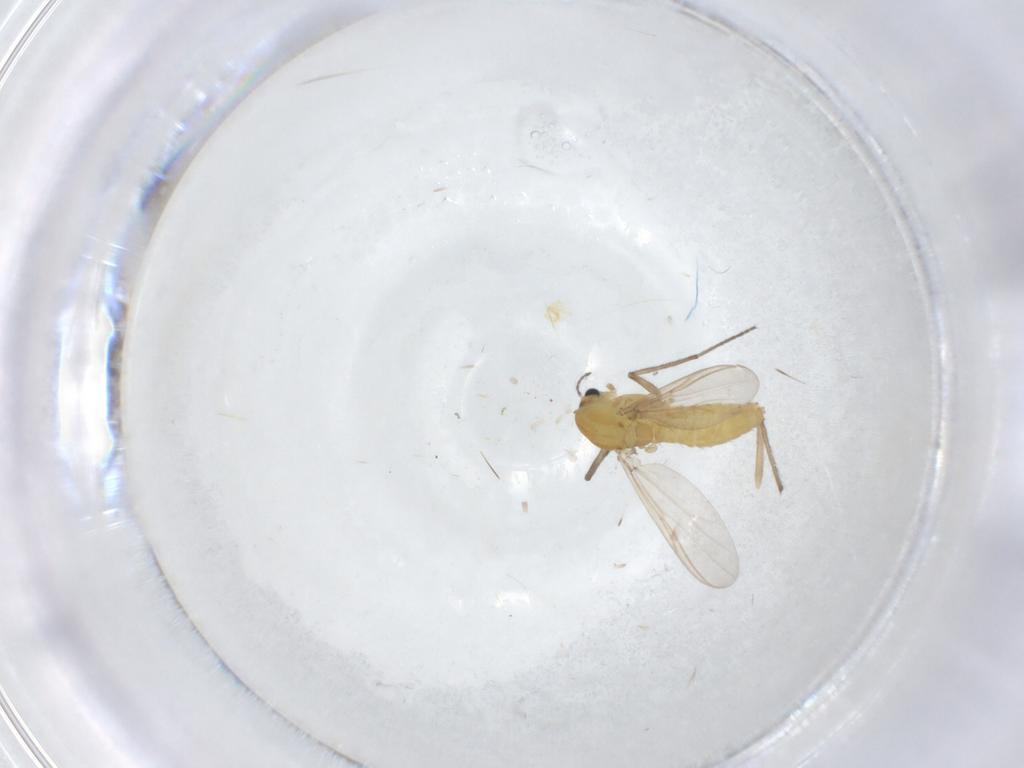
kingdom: Animalia
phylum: Arthropoda
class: Insecta
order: Diptera
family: Chironomidae
